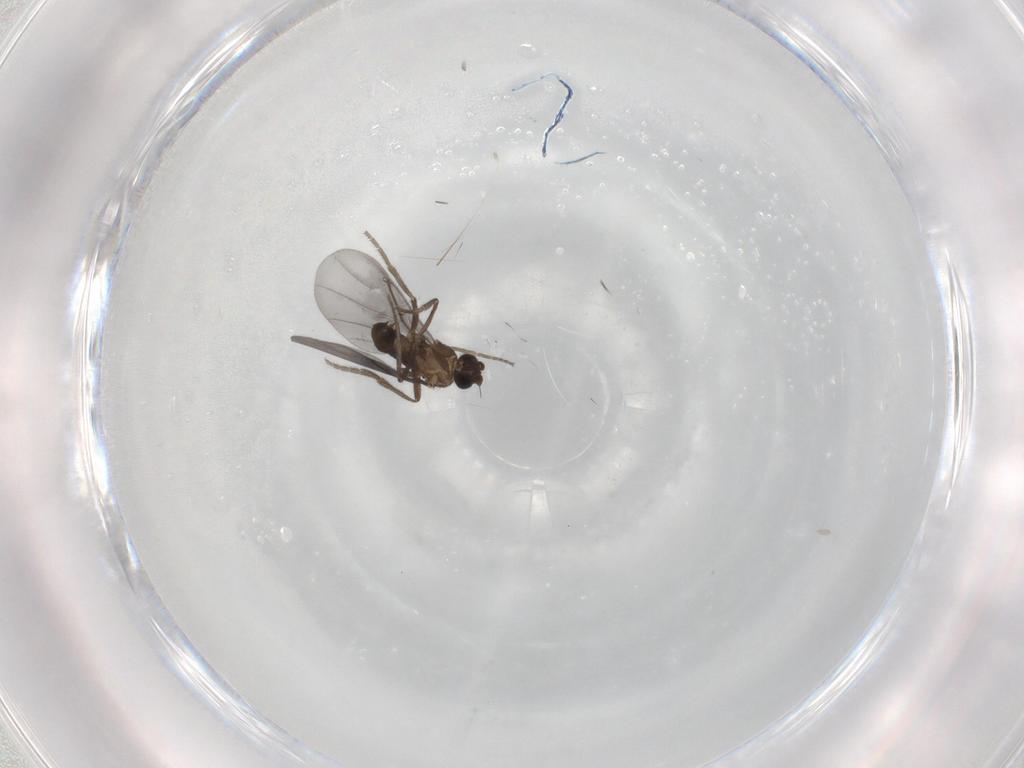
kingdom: Animalia
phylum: Arthropoda
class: Insecta
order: Diptera
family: Phoridae
